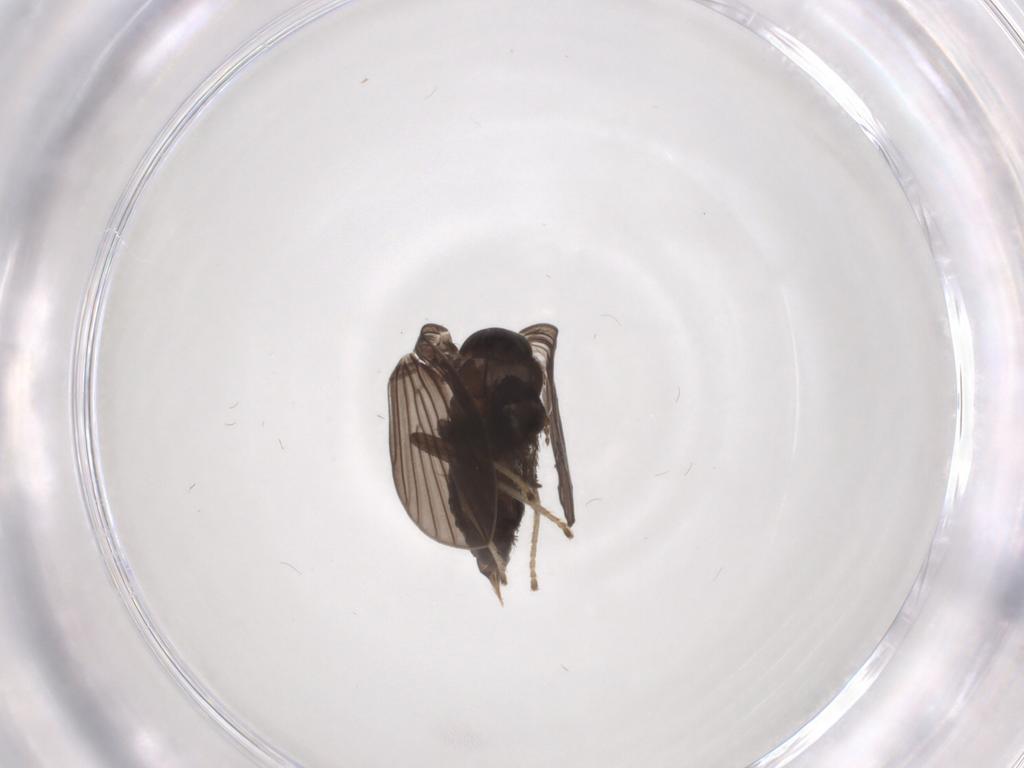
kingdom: Animalia
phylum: Arthropoda
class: Insecta
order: Diptera
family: Psychodidae
